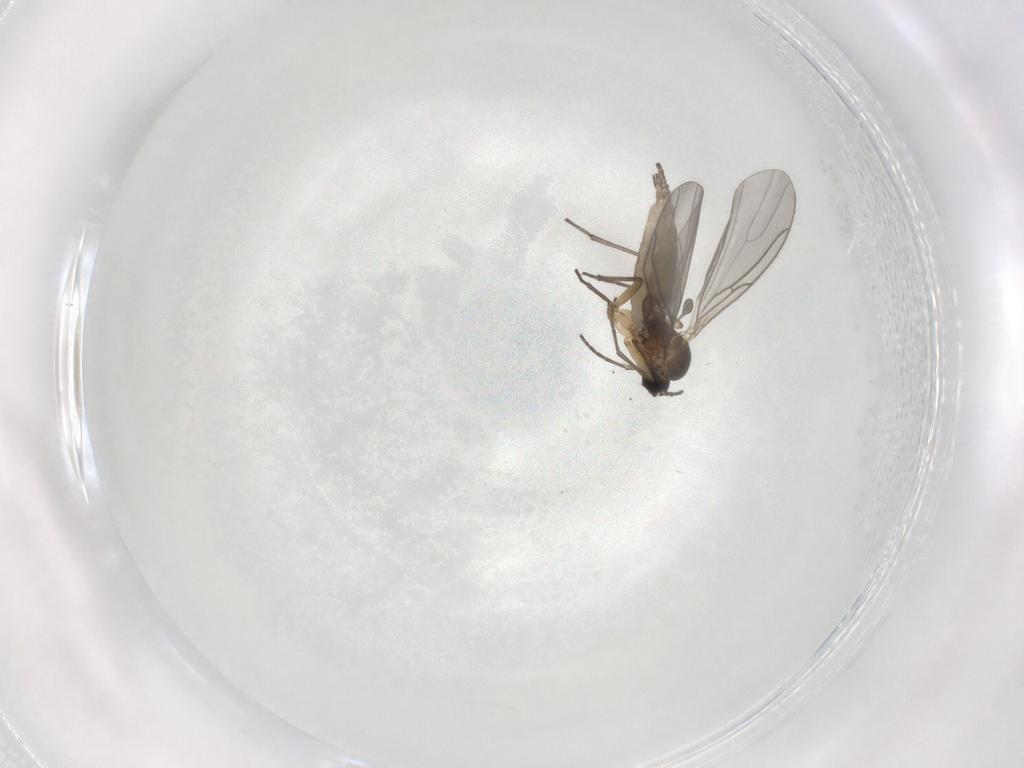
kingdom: Animalia
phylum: Arthropoda
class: Insecta
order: Diptera
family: Sciaridae
